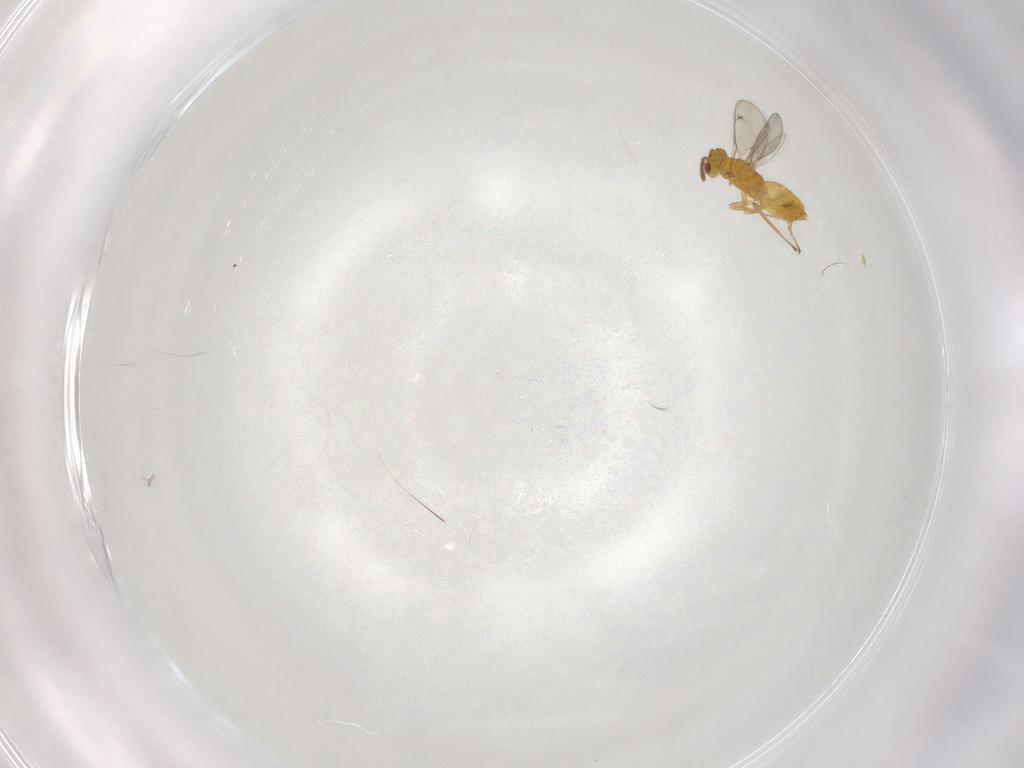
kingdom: Animalia
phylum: Arthropoda
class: Insecta
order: Hymenoptera
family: Eulophidae
